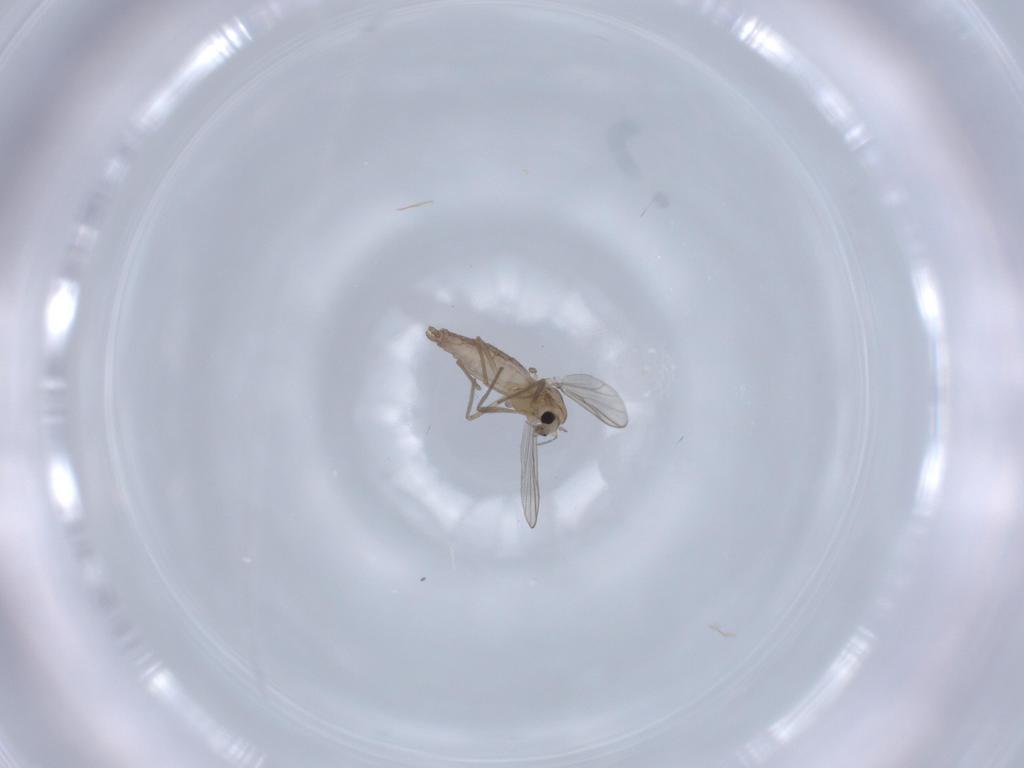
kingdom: Animalia
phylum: Arthropoda
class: Insecta
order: Diptera
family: Chironomidae
